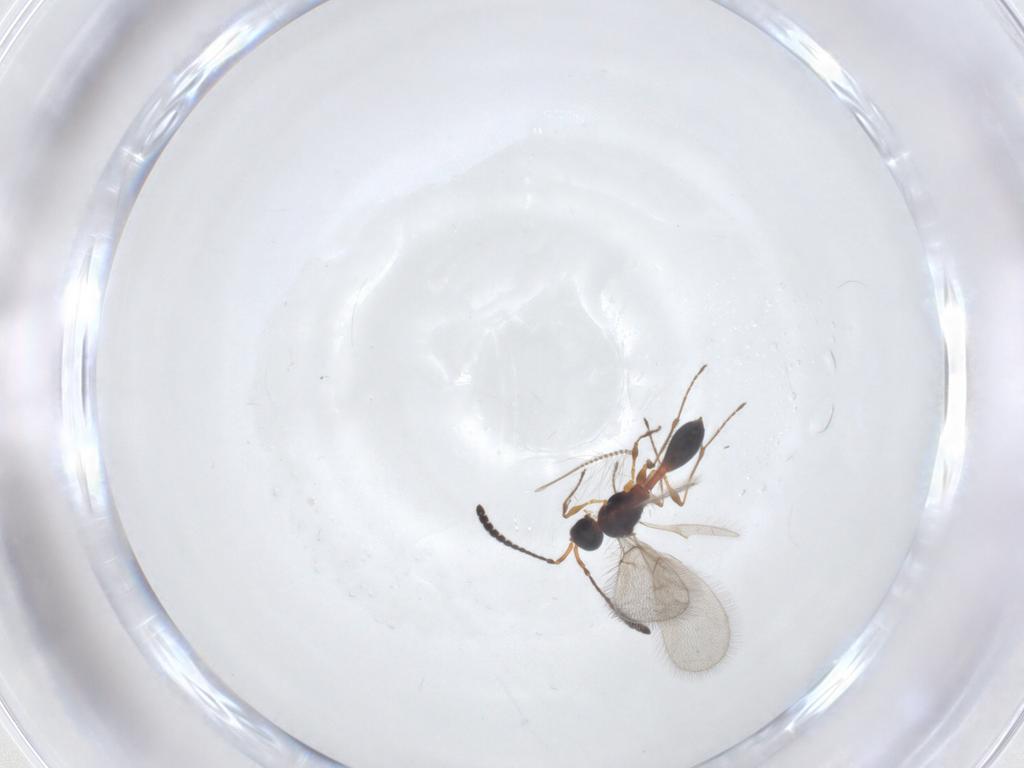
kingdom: Animalia
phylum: Arthropoda
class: Insecta
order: Hymenoptera
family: Diapriidae
